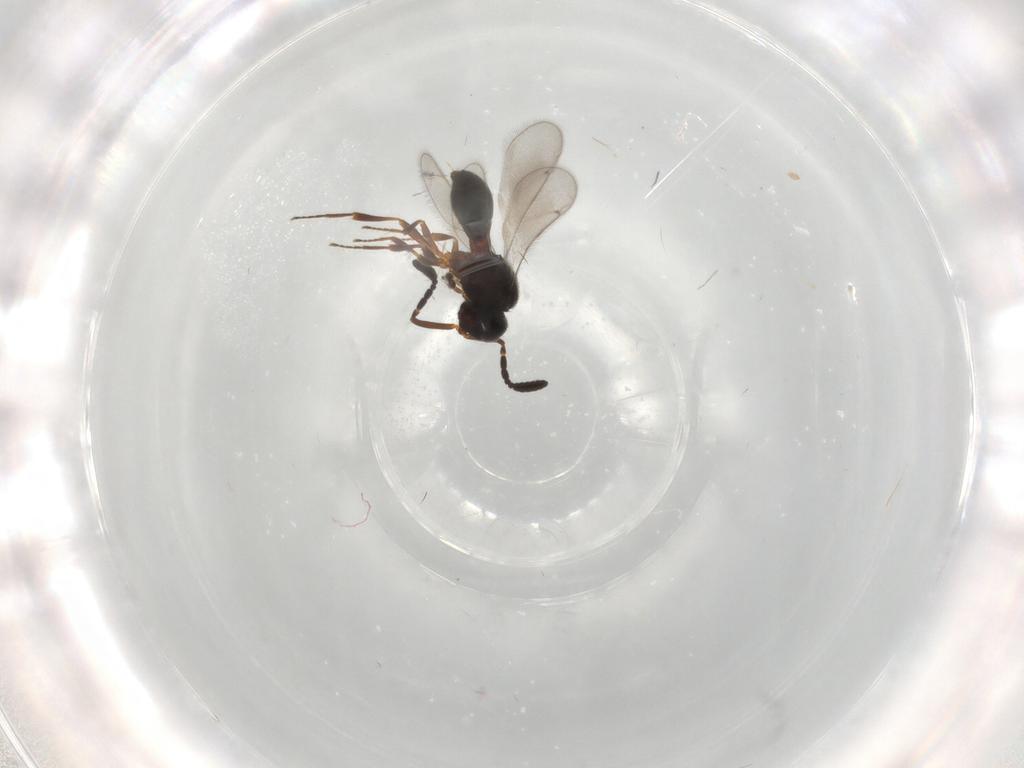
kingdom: Animalia
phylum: Arthropoda
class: Insecta
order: Hymenoptera
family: Scelionidae
